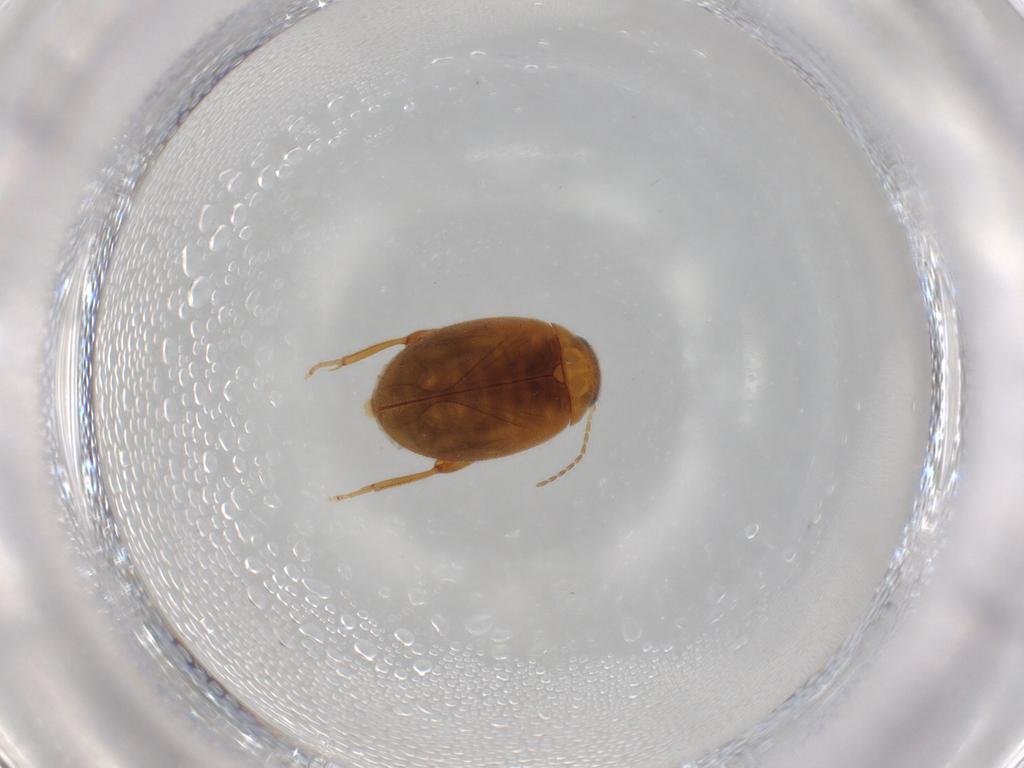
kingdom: Animalia
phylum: Arthropoda
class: Insecta
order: Coleoptera
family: Scirtidae
